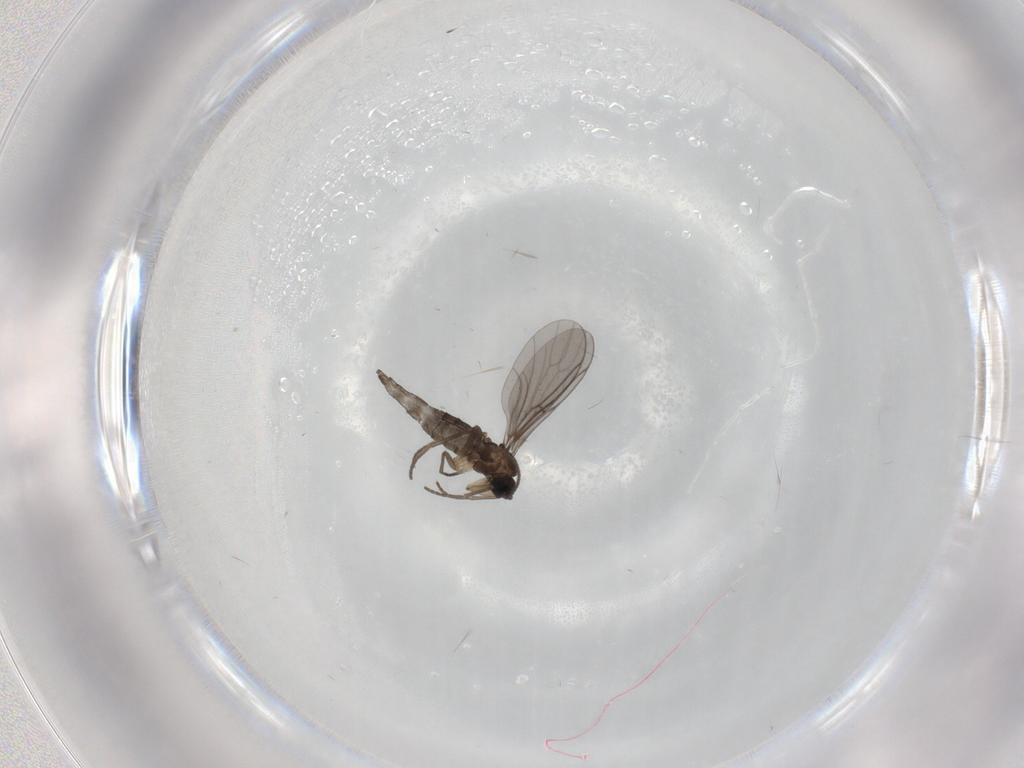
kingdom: Animalia
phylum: Arthropoda
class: Insecta
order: Diptera
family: Sciaridae
